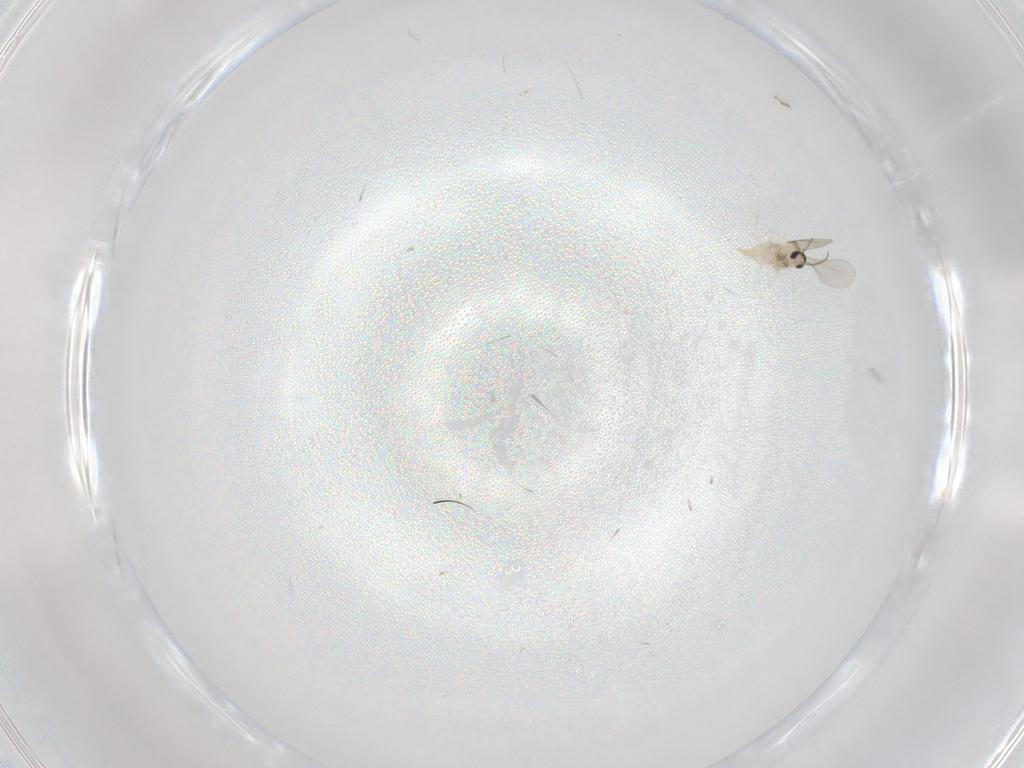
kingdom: Animalia
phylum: Arthropoda
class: Insecta
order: Diptera
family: Cecidomyiidae
